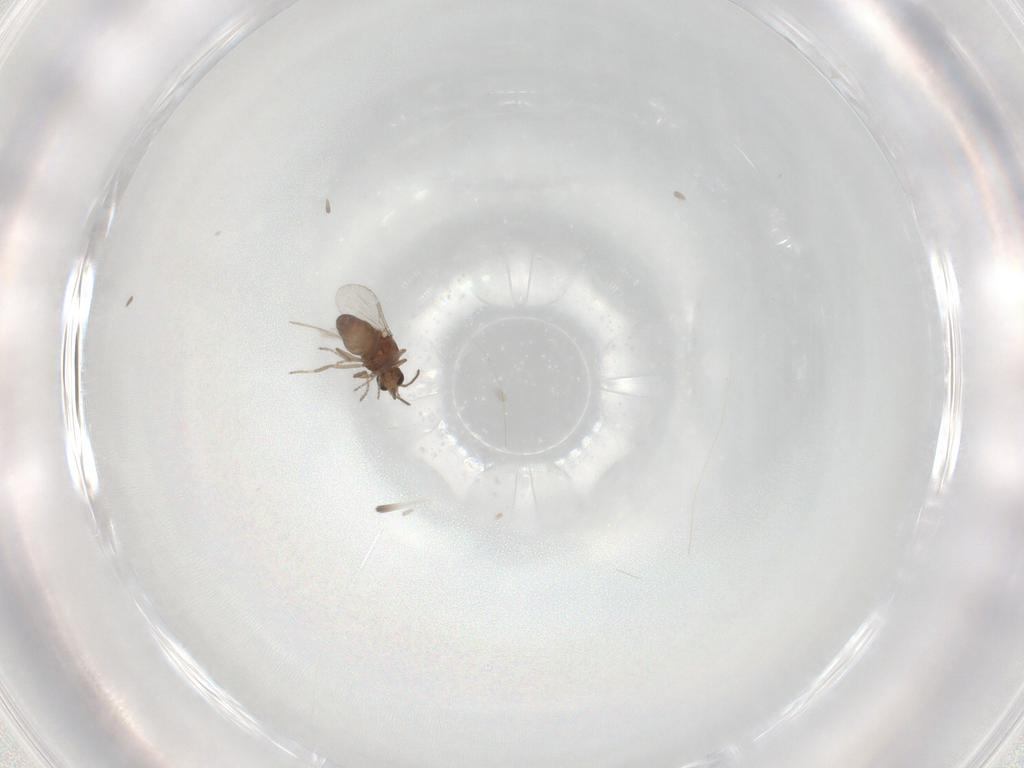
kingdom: Animalia
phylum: Arthropoda
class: Insecta
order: Diptera
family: Ceratopogonidae
